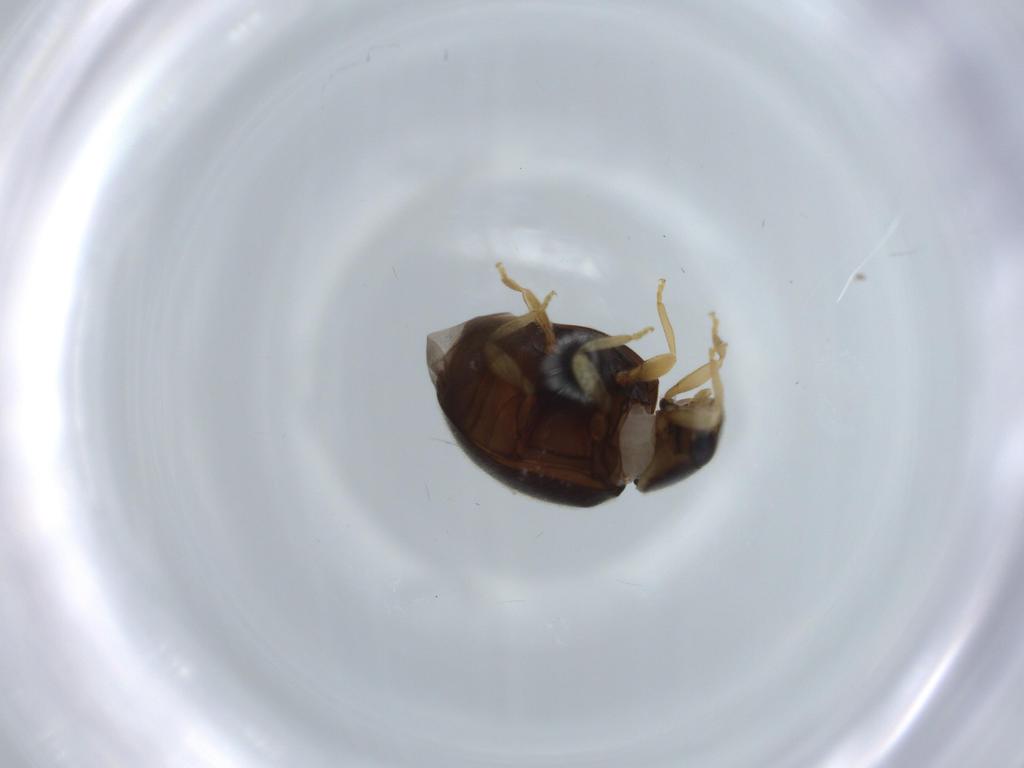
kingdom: Animalia
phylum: Arthropoda
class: Insecta
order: Coleoptera
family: Coccinellidae
